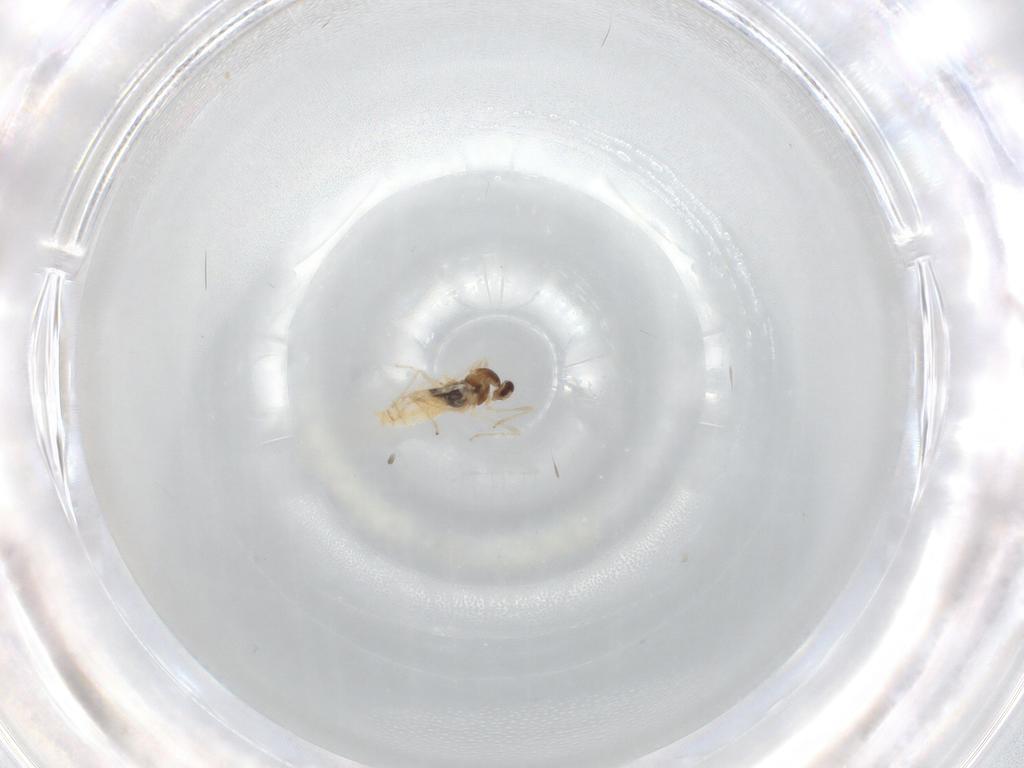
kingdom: Animalia
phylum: Arthropoda
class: Insecta
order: Diptera
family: Cecidomyiidae
